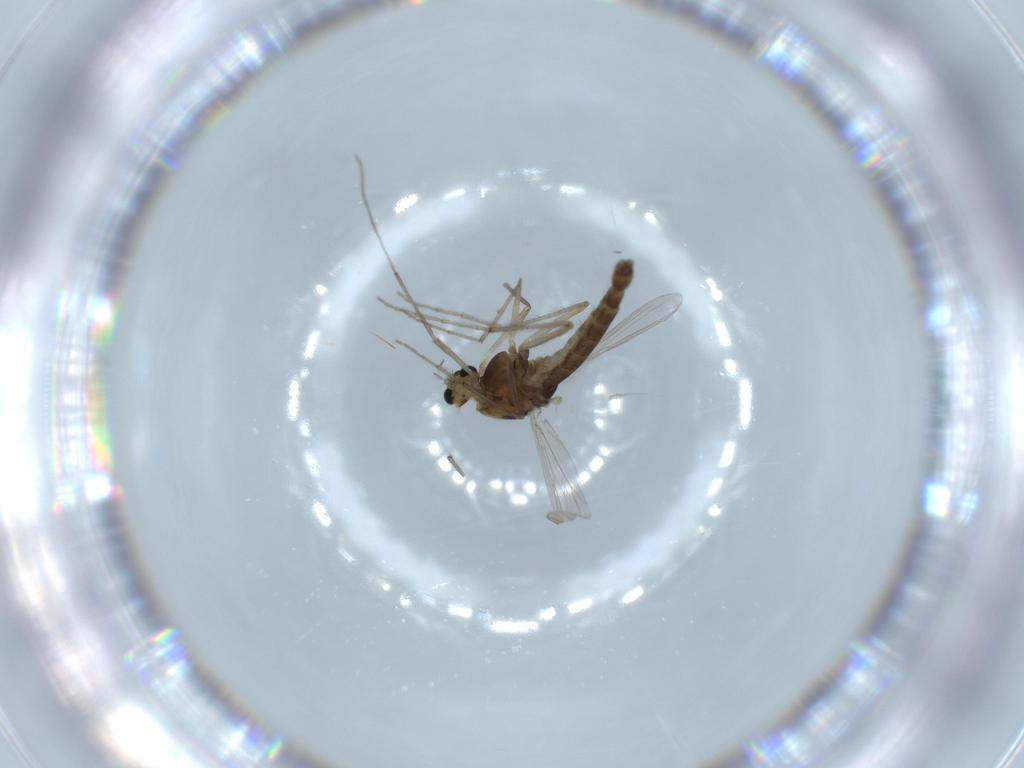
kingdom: Animalia
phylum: Arthropoda
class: Insecta
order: Diptera
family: Chironomidae
